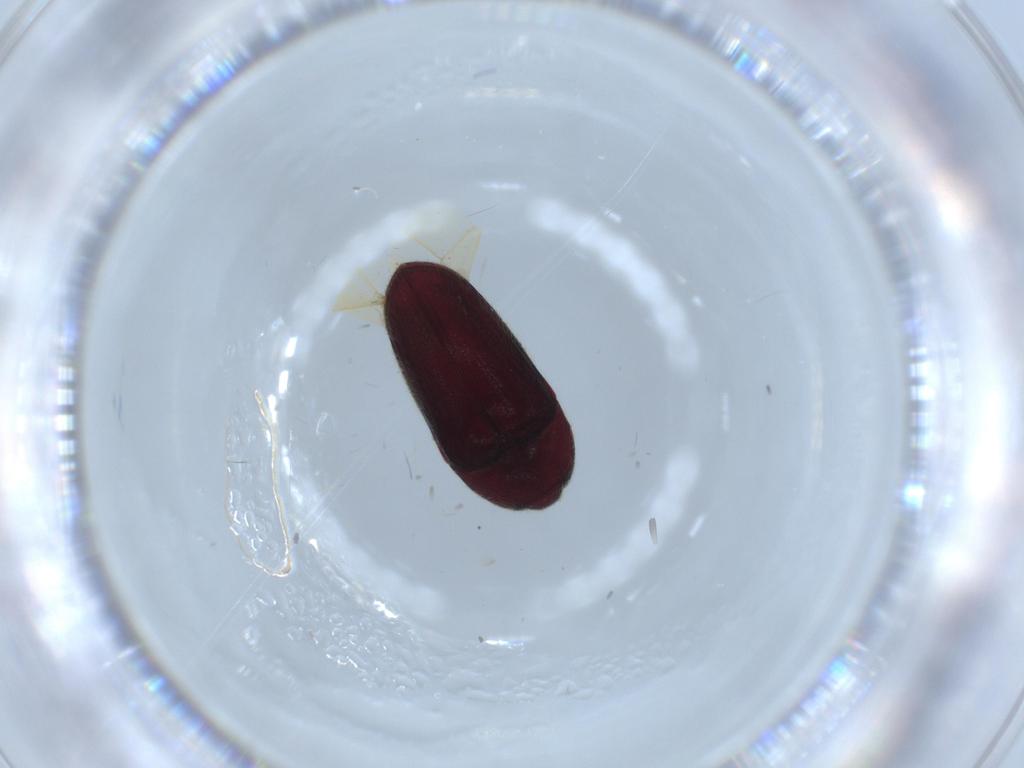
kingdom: Animalia
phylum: Arthropoda
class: Insecta
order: Coleoptera
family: Throscidae
